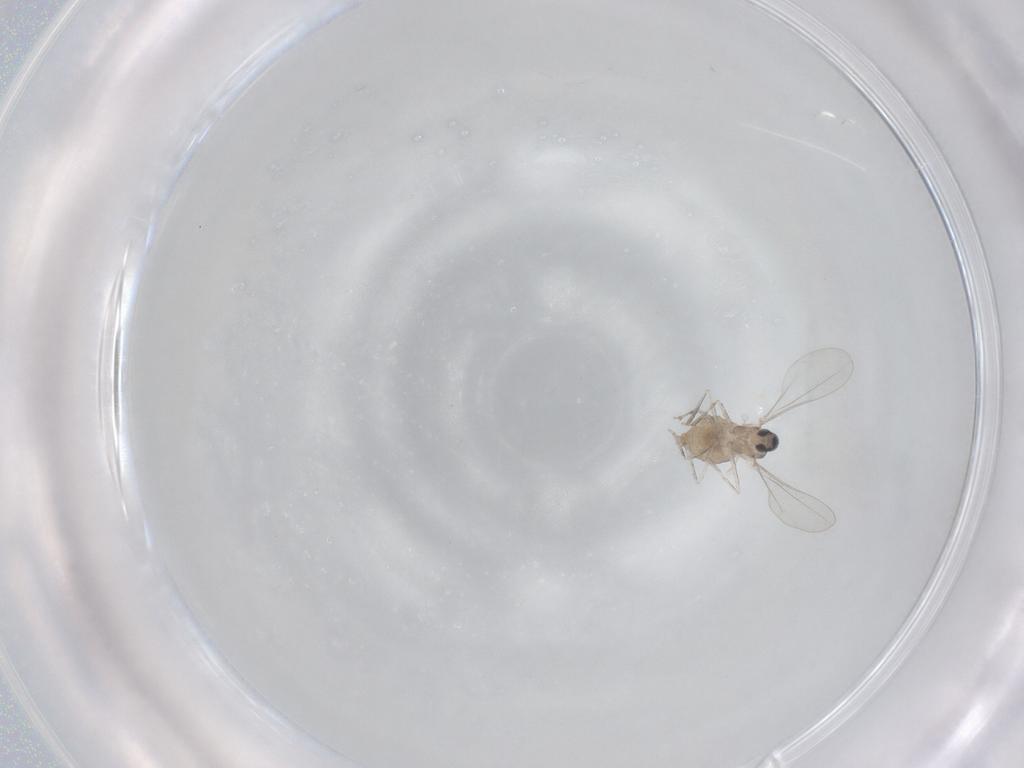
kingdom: Animalia
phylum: Arthropoda
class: Insecta
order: Diptera
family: Cecidomyiidae
